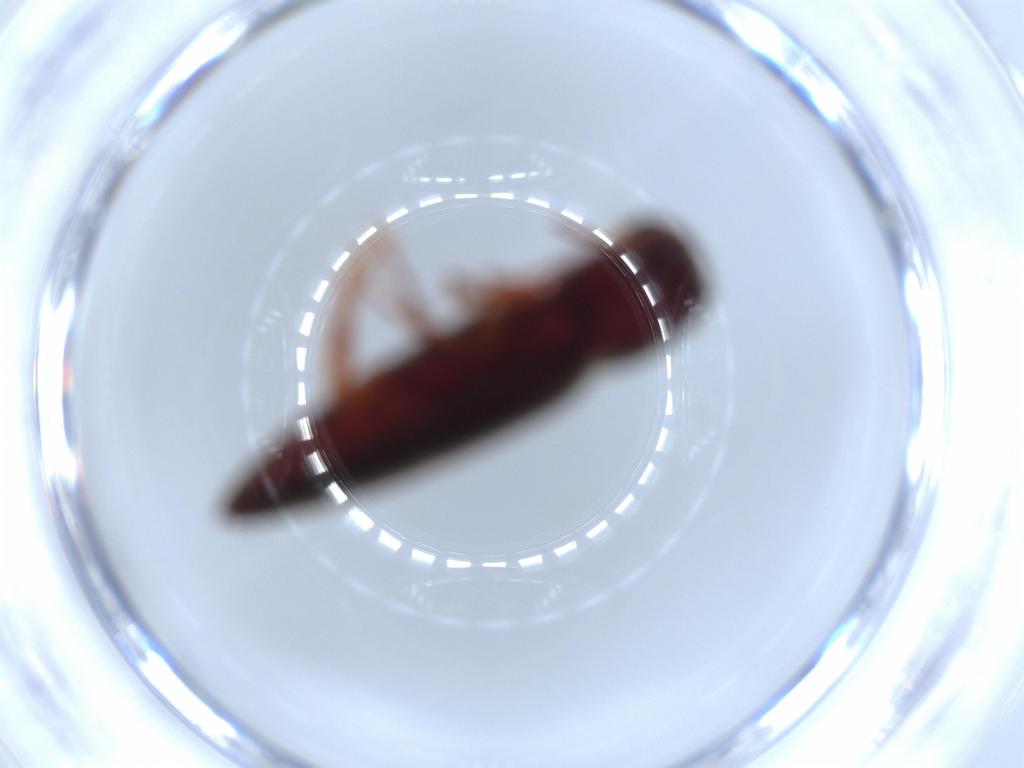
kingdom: Animalia
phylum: Arthropoda
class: Insecta
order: Coleoptera
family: Eucnemidae
